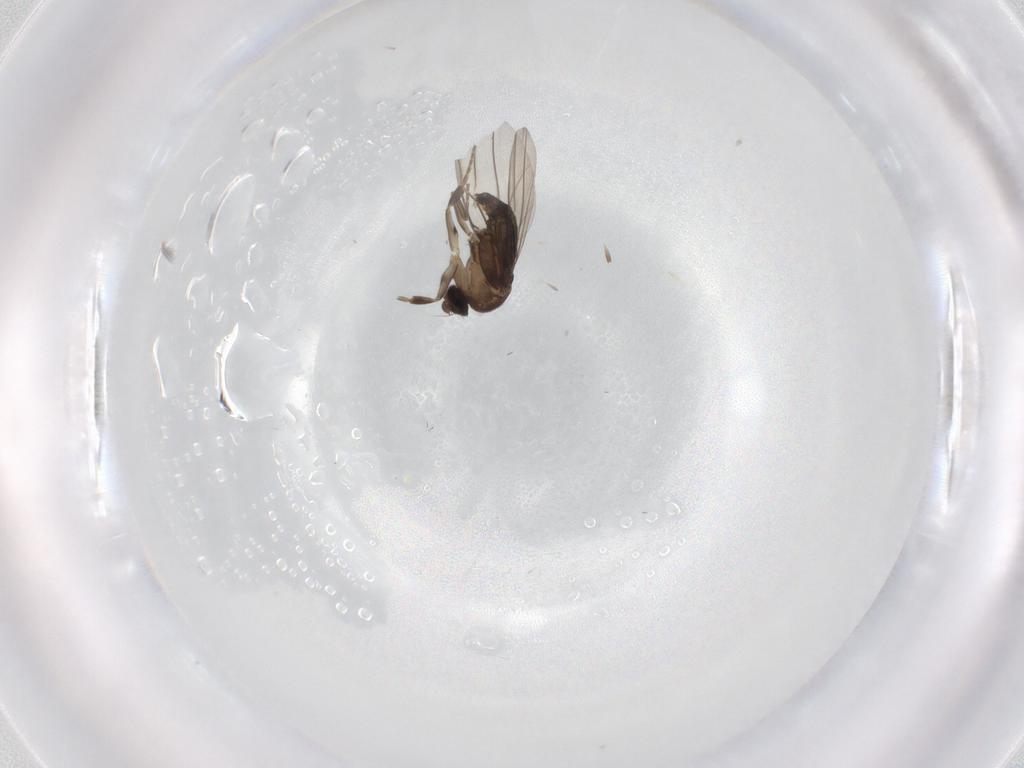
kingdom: Animalia
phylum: Arthropoda
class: Insecta
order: Diptera
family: Phoridae
